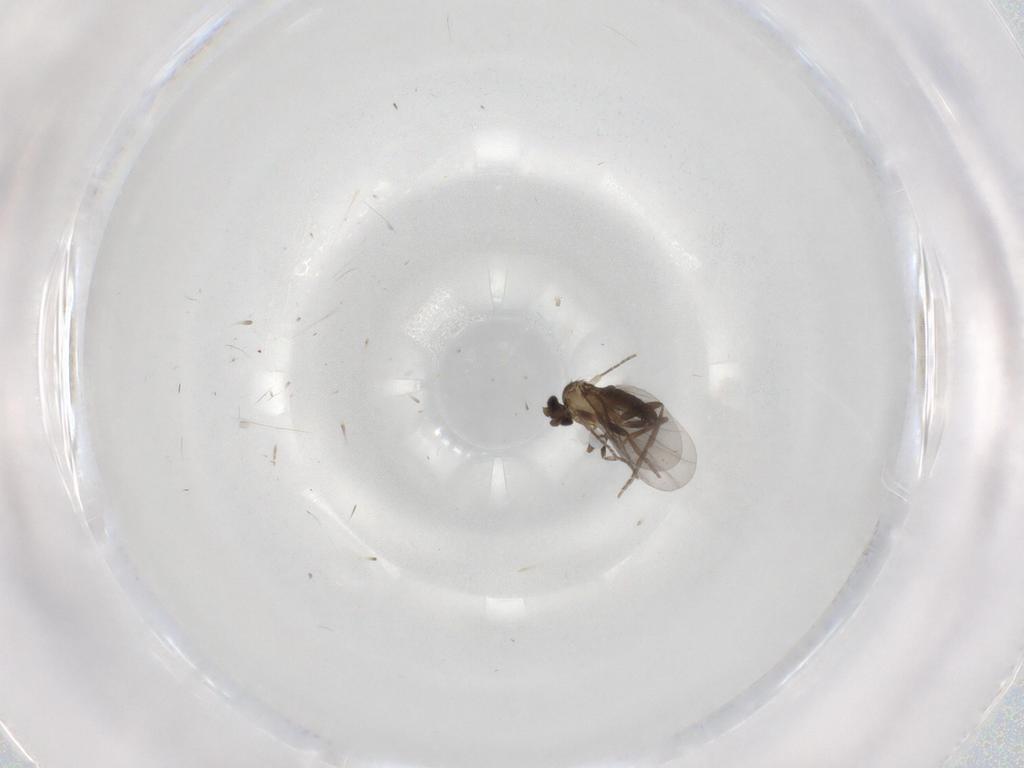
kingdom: Animalia
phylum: Arthropoda
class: Insecta
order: Diptera
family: Phoridae
